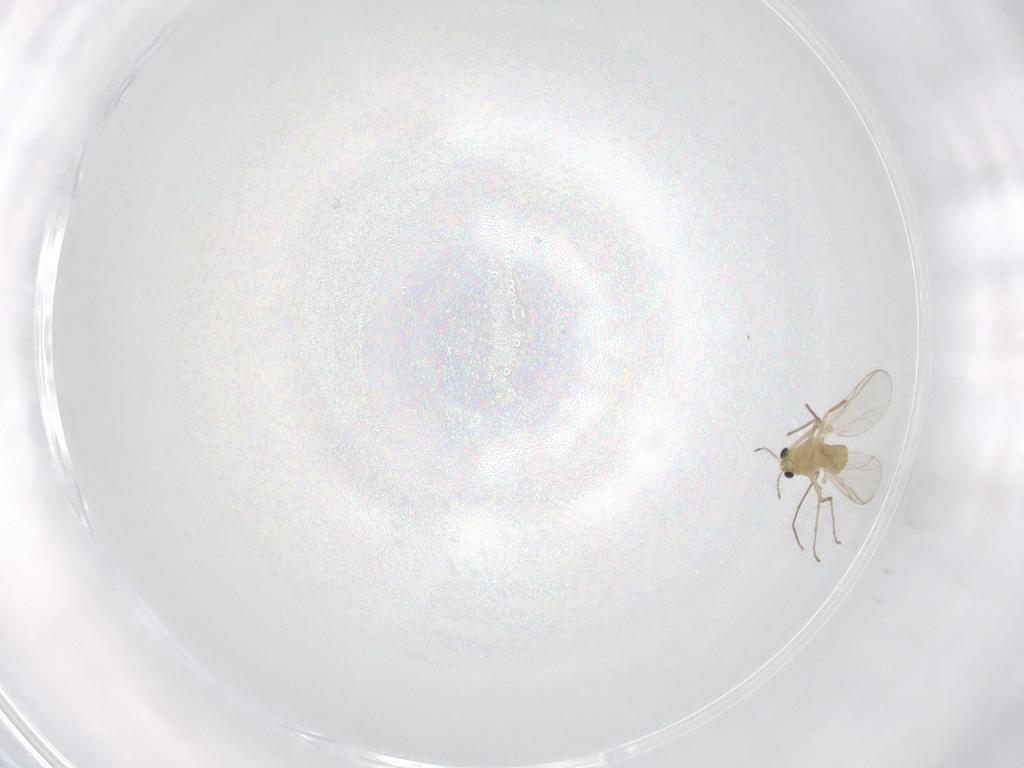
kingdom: Animalia
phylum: Arthropoda
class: Insecta
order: Diptera
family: Chironomidae
